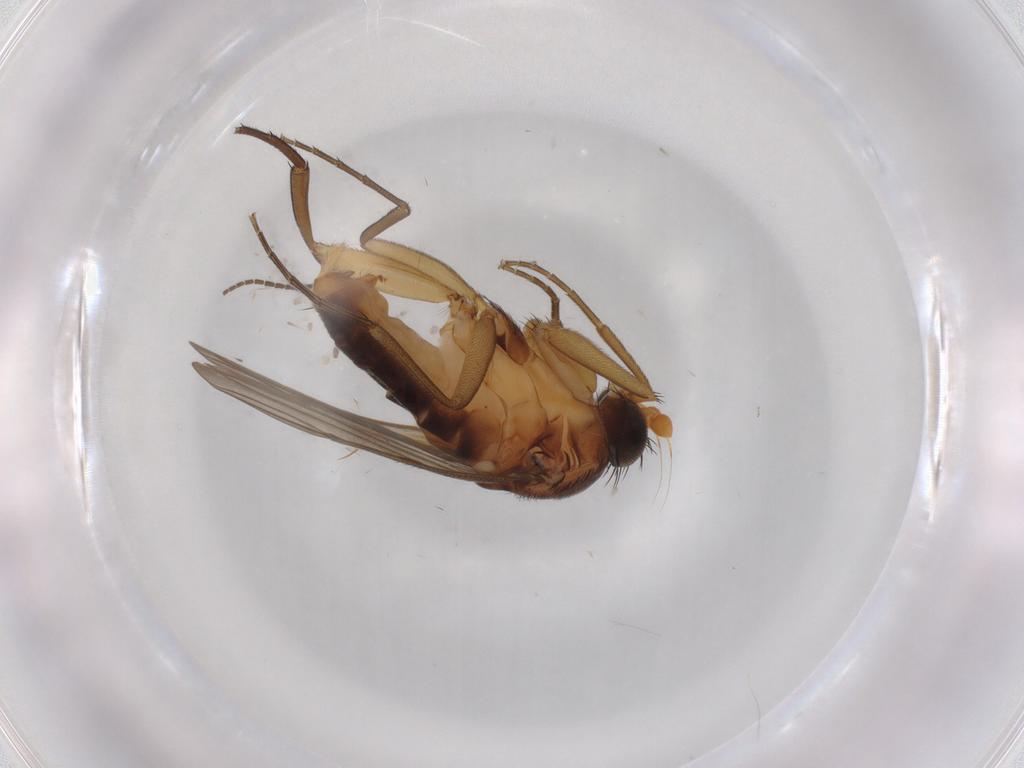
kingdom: Animalia
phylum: Arthropoda
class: Insecta
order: Diptera
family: Sciaridae
